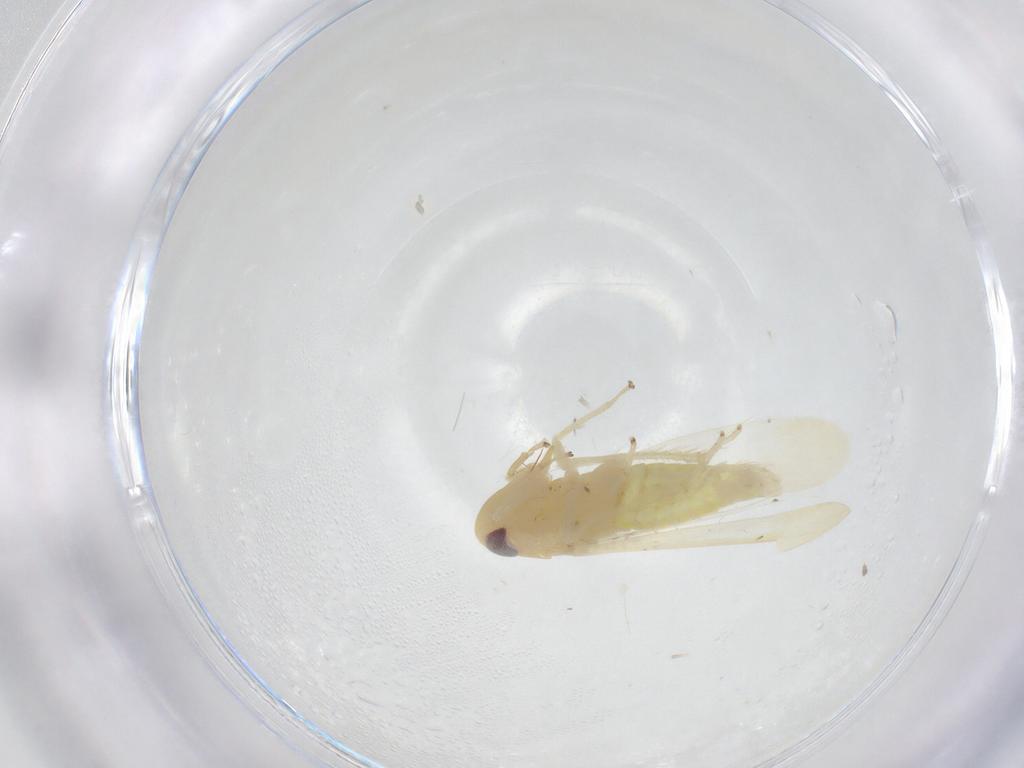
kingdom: Animalia
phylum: Arthropoda
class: Insecta
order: Hemiptera
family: Cicadellidae
